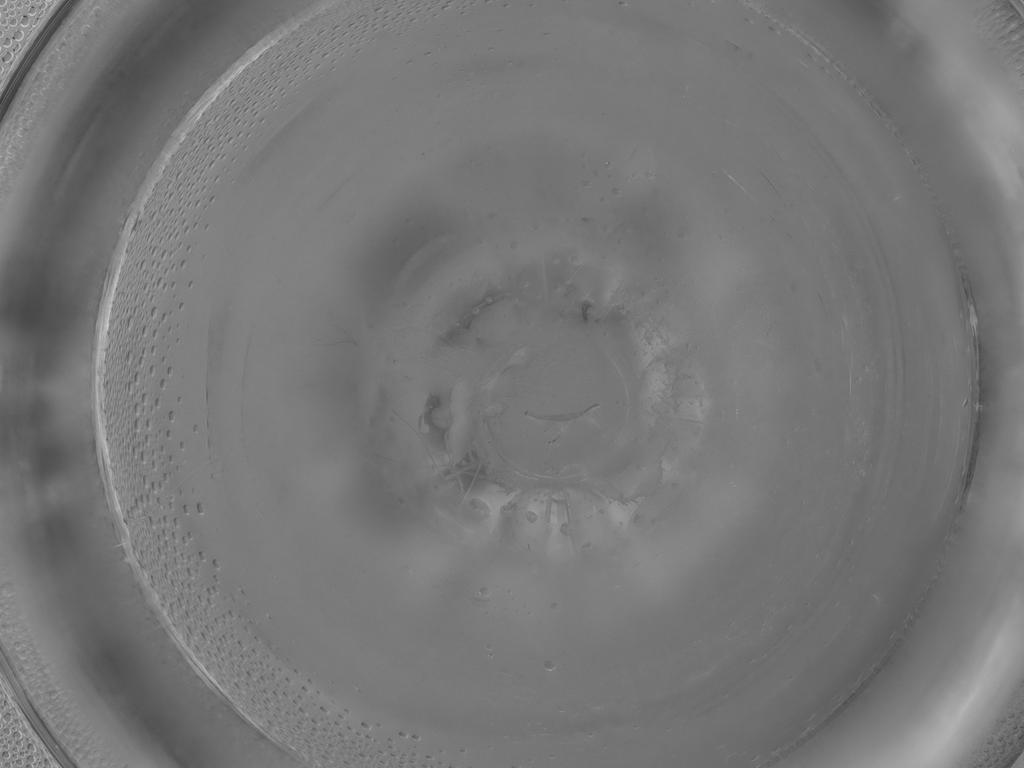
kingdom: Animalia
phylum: Arthropoda
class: Insecta
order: Diptera
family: Cecidomyiidae
